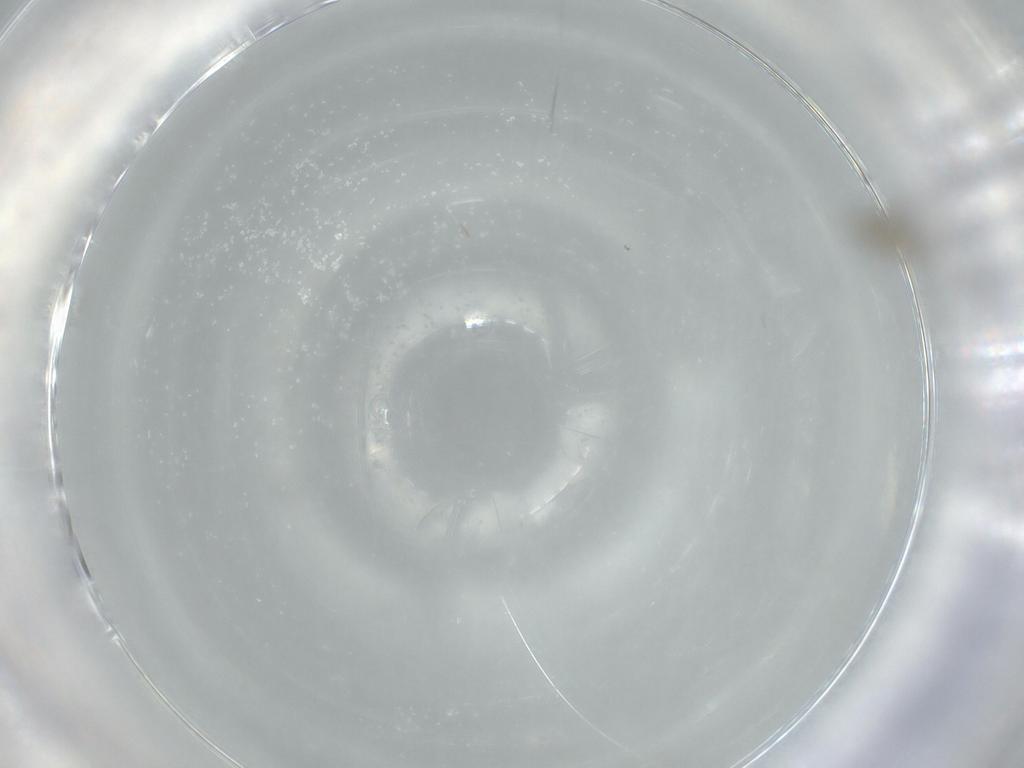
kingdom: Animalia
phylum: Arthropoda
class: Insecta
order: Diptera
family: Cecidomyiidae
